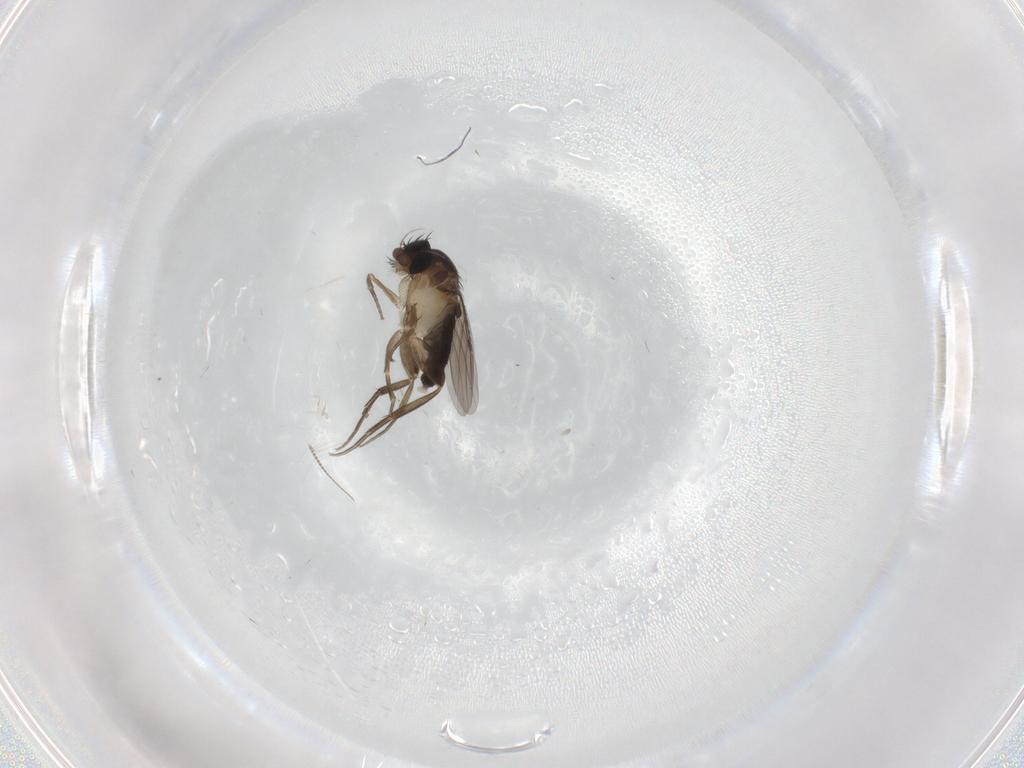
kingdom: Animalia
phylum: Arthropoda
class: Insecta
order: Diptera
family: Phoridae
